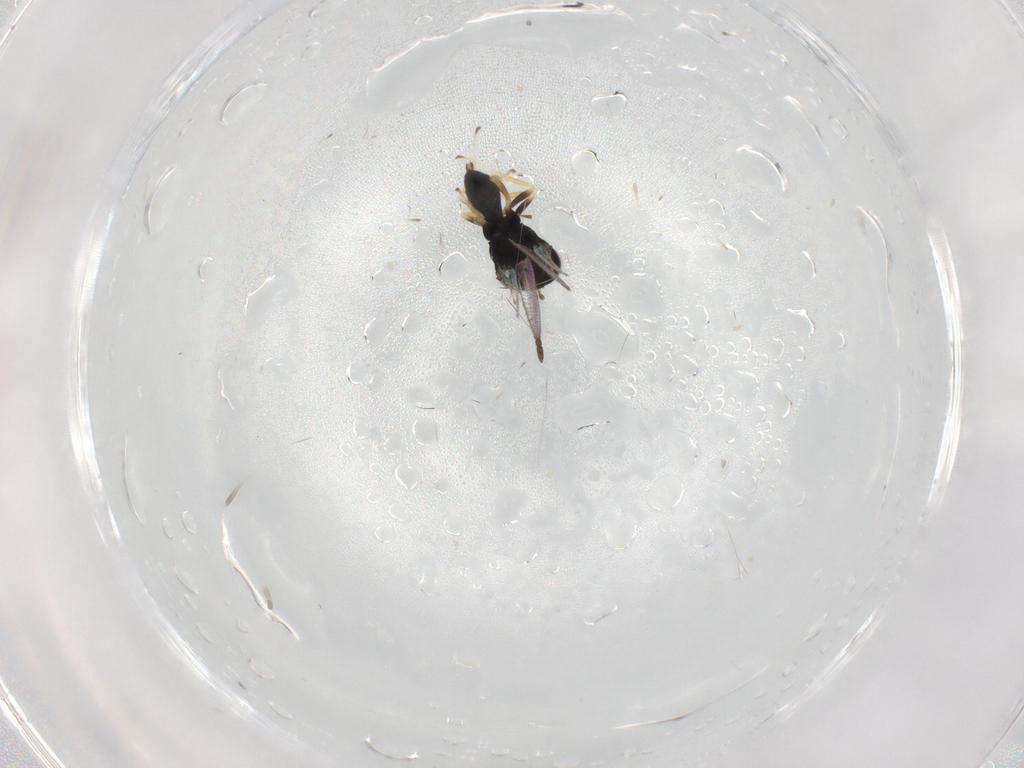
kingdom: Animalia
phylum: Arthropoda
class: Insecta
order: Hymenoptera
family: Pteromalidae
